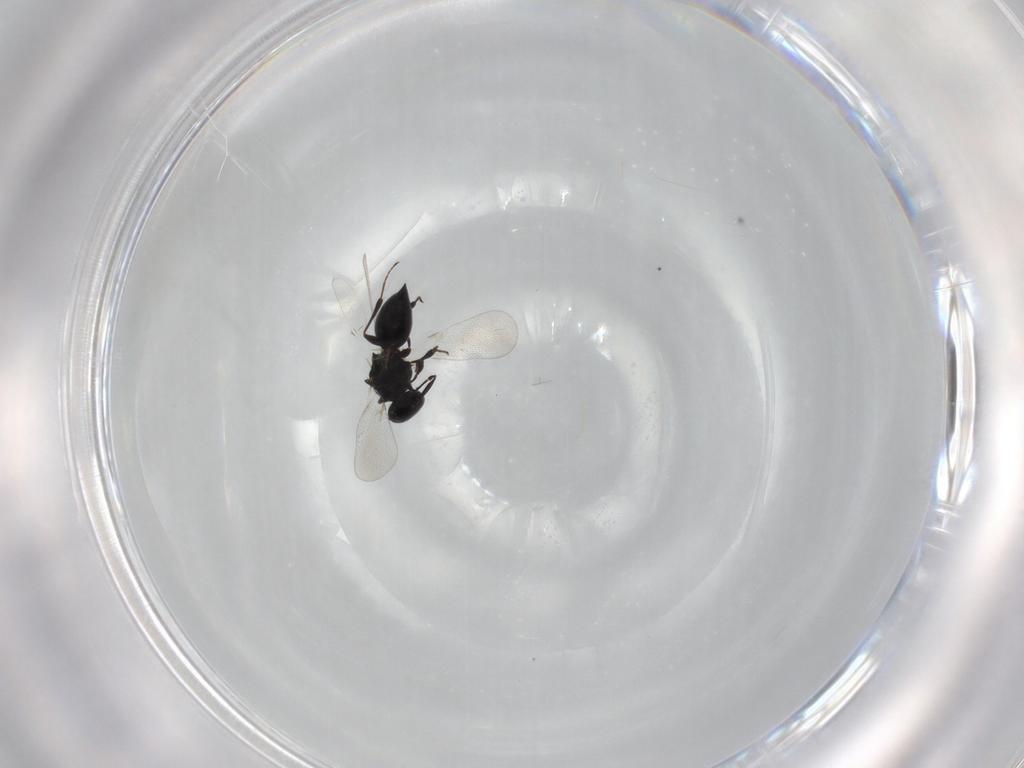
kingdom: Animalia
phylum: Arthropoda
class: Insecta
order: Hymenoptera
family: Platygastridae
